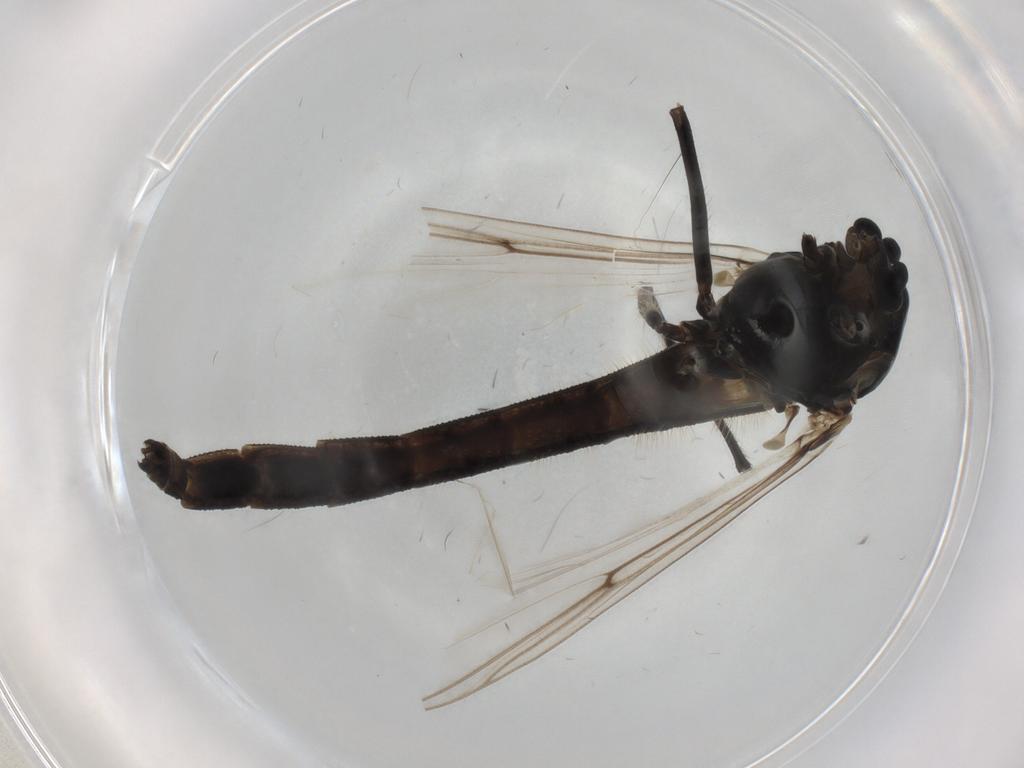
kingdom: Animalia
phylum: Arthropoda
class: Insecta
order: Diptera
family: Chironomidae
